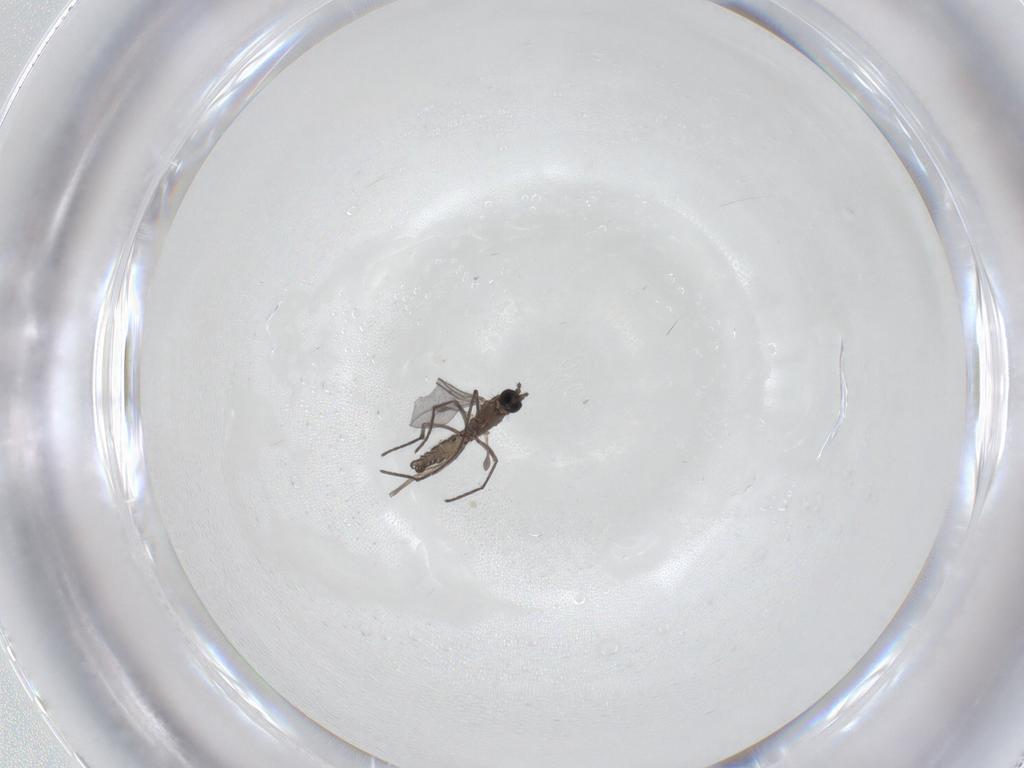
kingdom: Animalia
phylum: Arthropoda
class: Insecta
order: Diptera
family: Sciaridae
